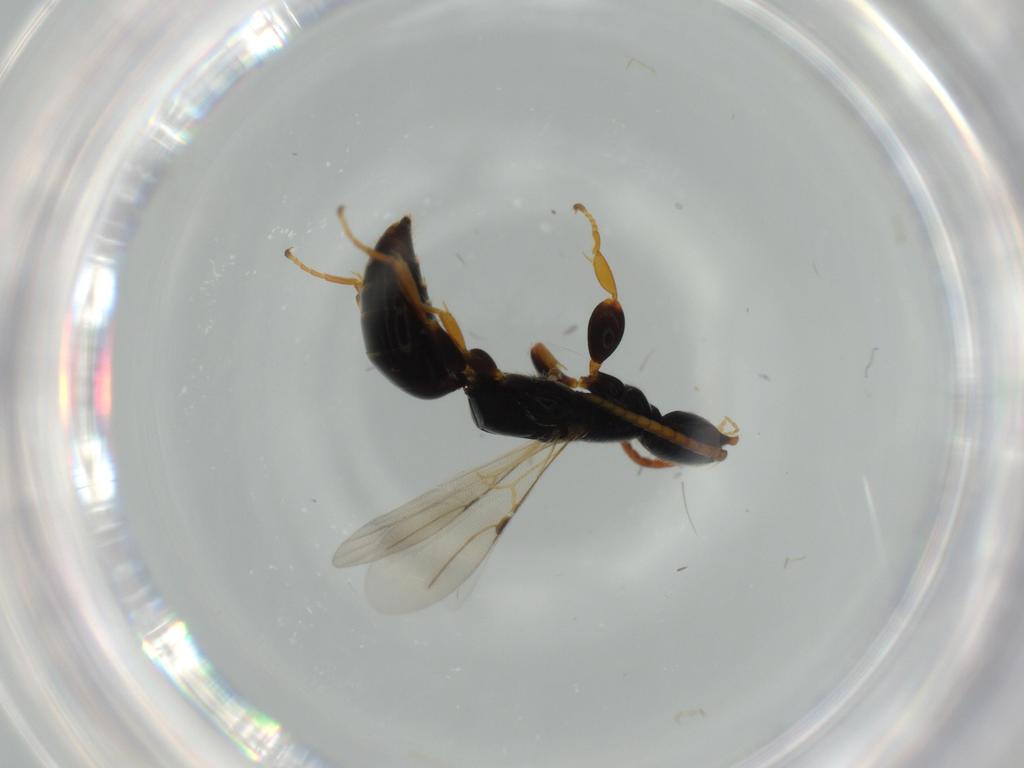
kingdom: Animalia
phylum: Arthropoda
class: Insecta
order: Hymenoptera
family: Bethylidae
